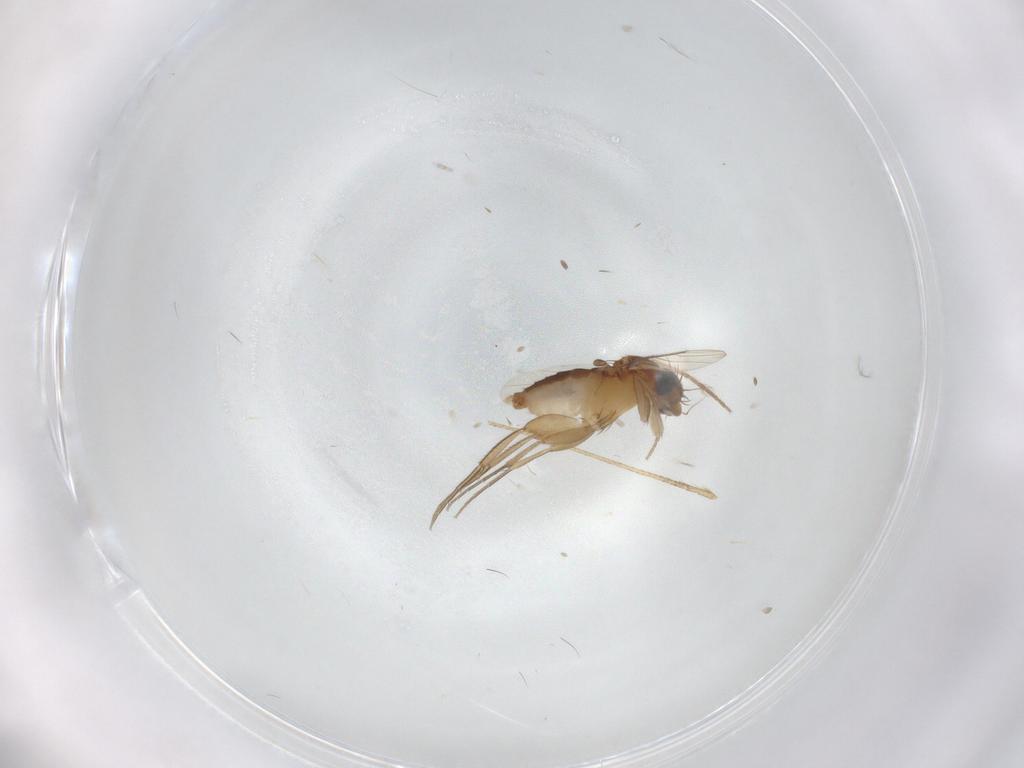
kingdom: Animalia
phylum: Arthropoda
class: Insecta
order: Diptera
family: Phoridae
